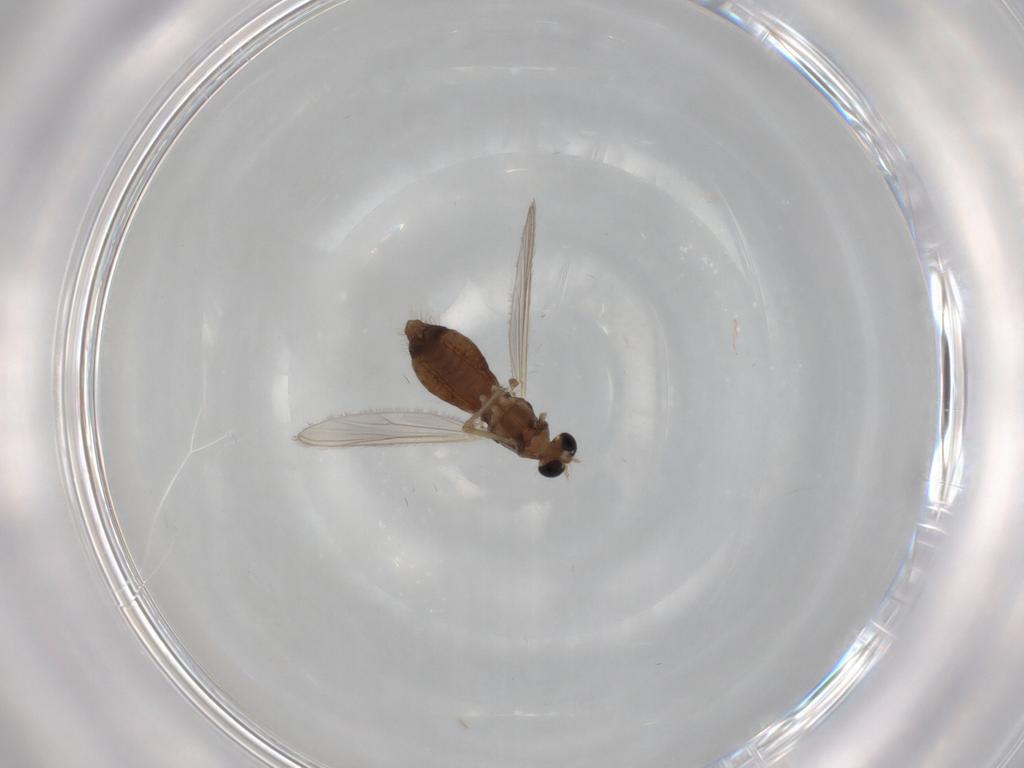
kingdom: Animalia
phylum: Arthropoda
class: Insecta
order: Diptera
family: Chironomidae
